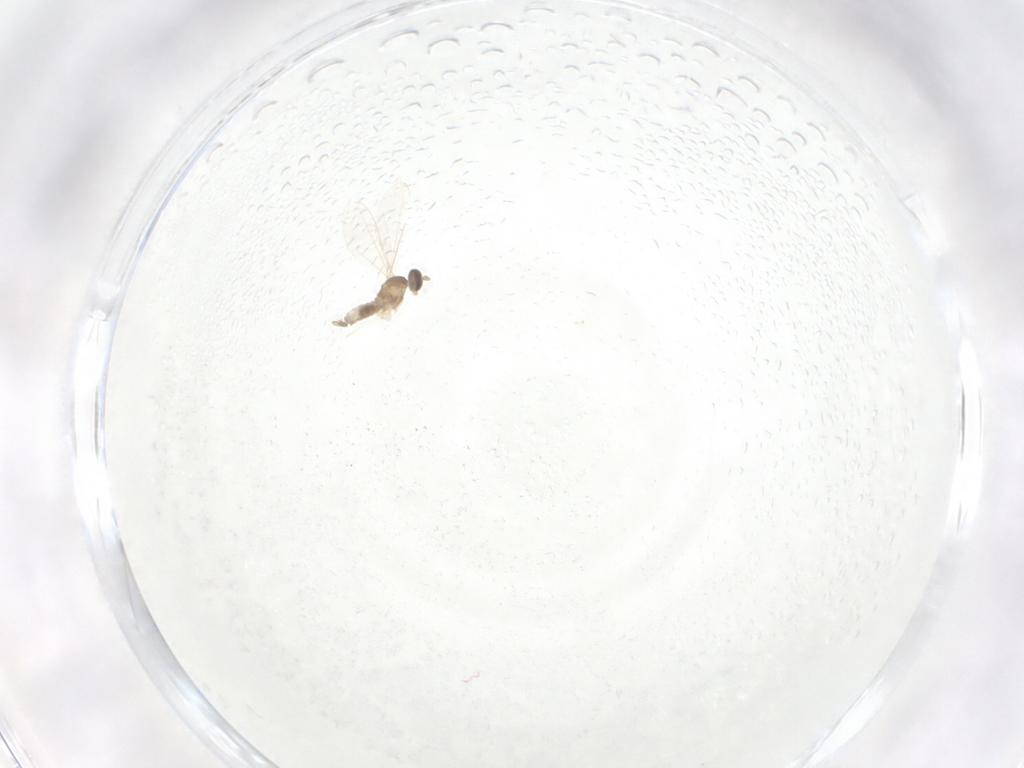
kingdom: Animalia
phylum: Arthropoda
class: Insecta
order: Diptera
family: Cecidomyiidae
